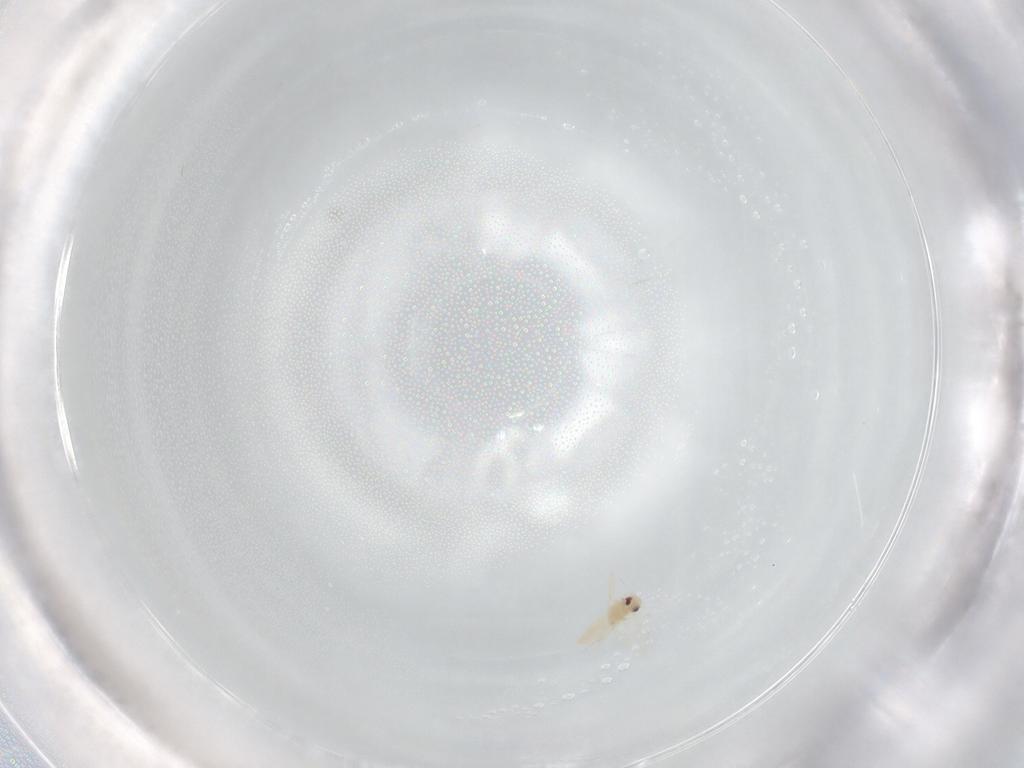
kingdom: Animalia
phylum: Arthropoda
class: Insecta
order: Hemiptera
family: Aleyrodidae
